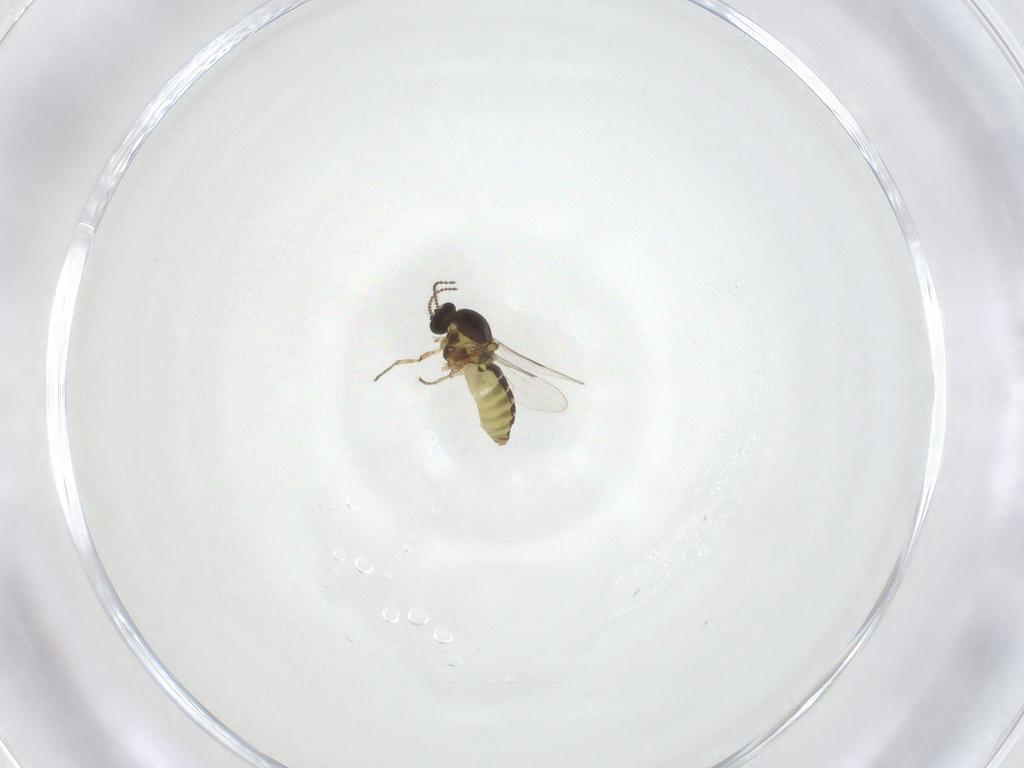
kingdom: Animalia
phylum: Arthropoda
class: Insecta
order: Diptera
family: Ceratopogonidae
